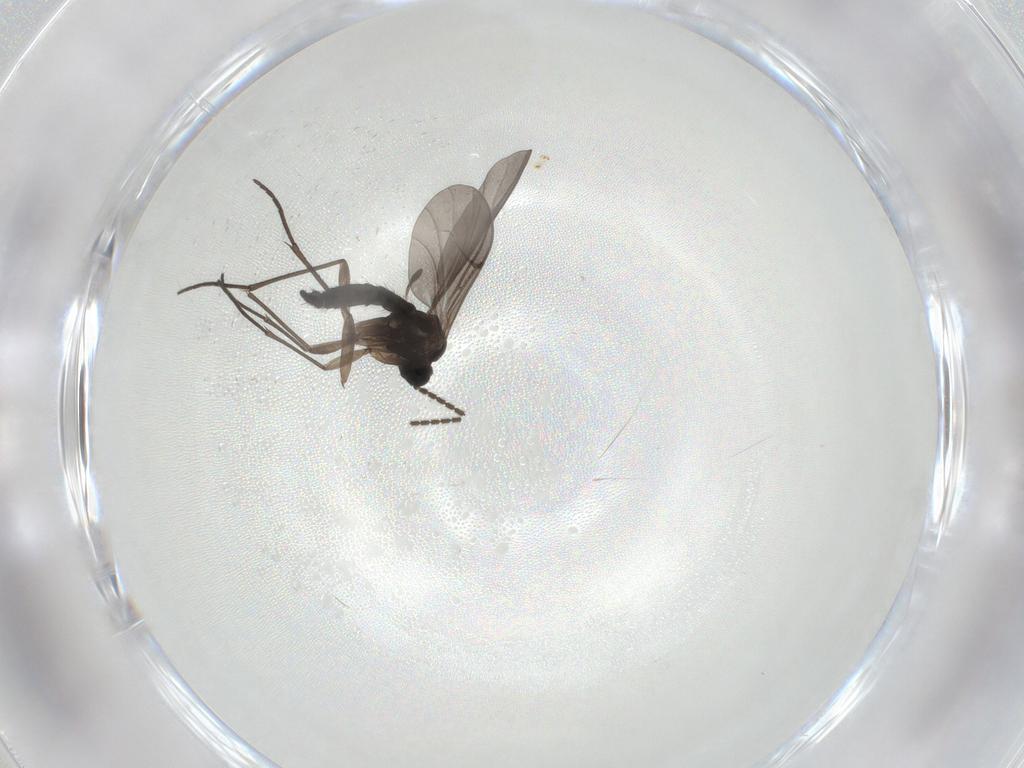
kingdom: Animalia
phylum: Arthropoda
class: Insecta
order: Diptera
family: Sciaridae
